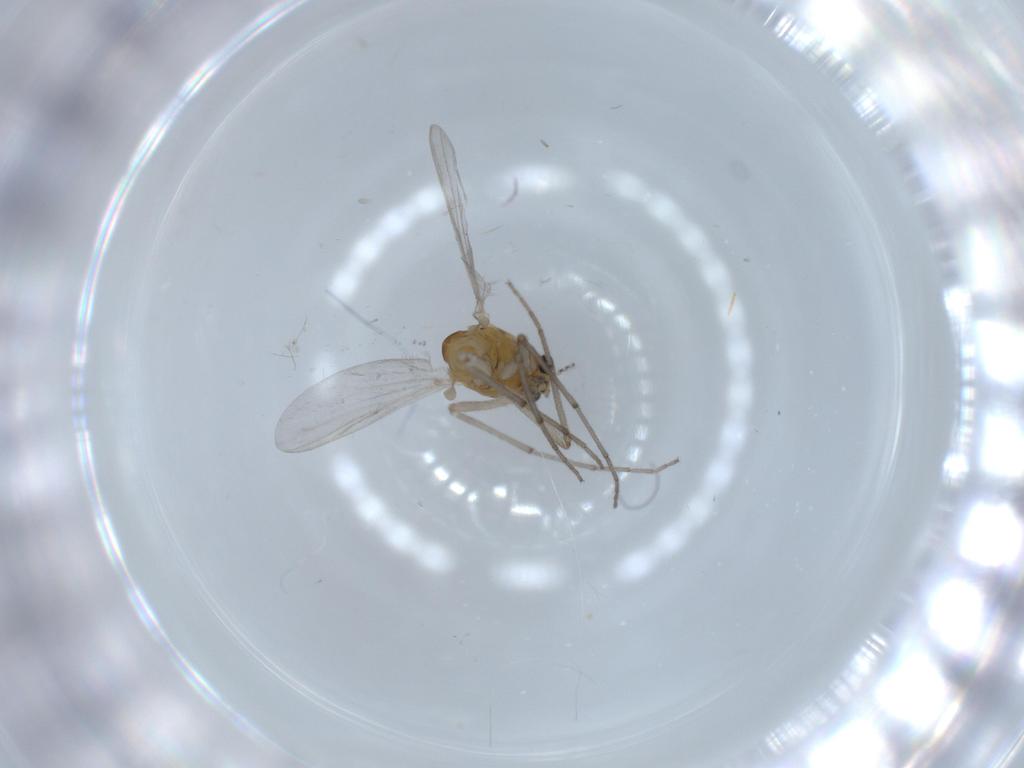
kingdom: Animalia
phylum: Arthropoda
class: Insecta
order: Diptera
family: Chironomidae
